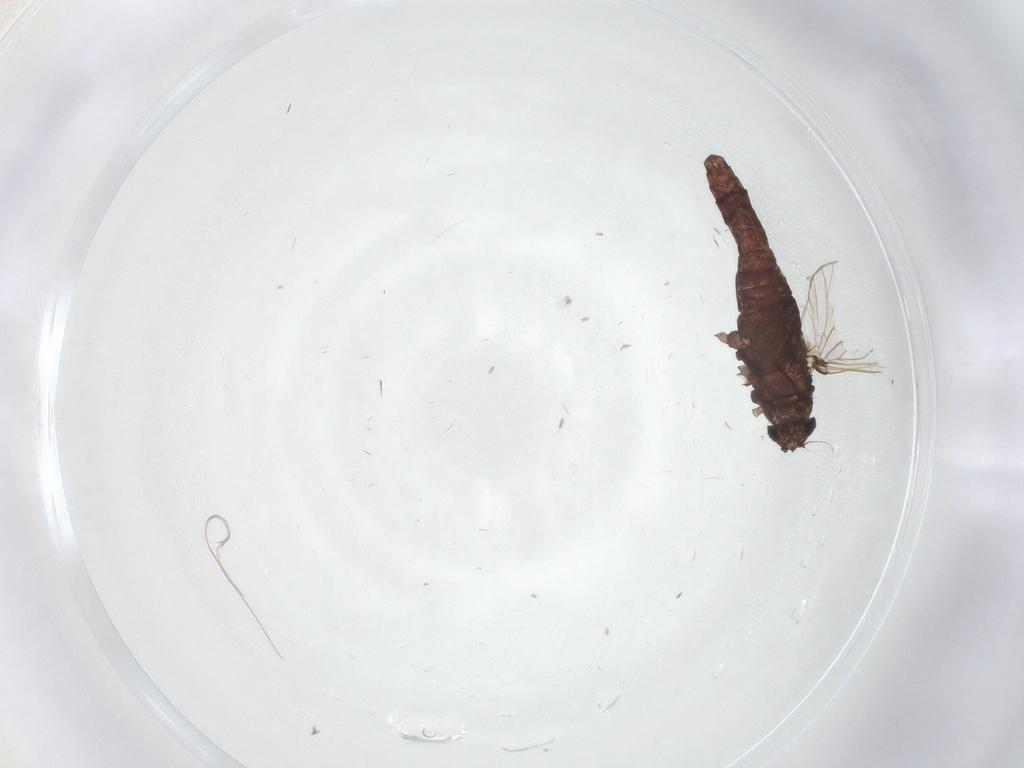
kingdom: Animalia
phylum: Arthropoda
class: Insecta
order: Ephemeroptera
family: Baetidae
